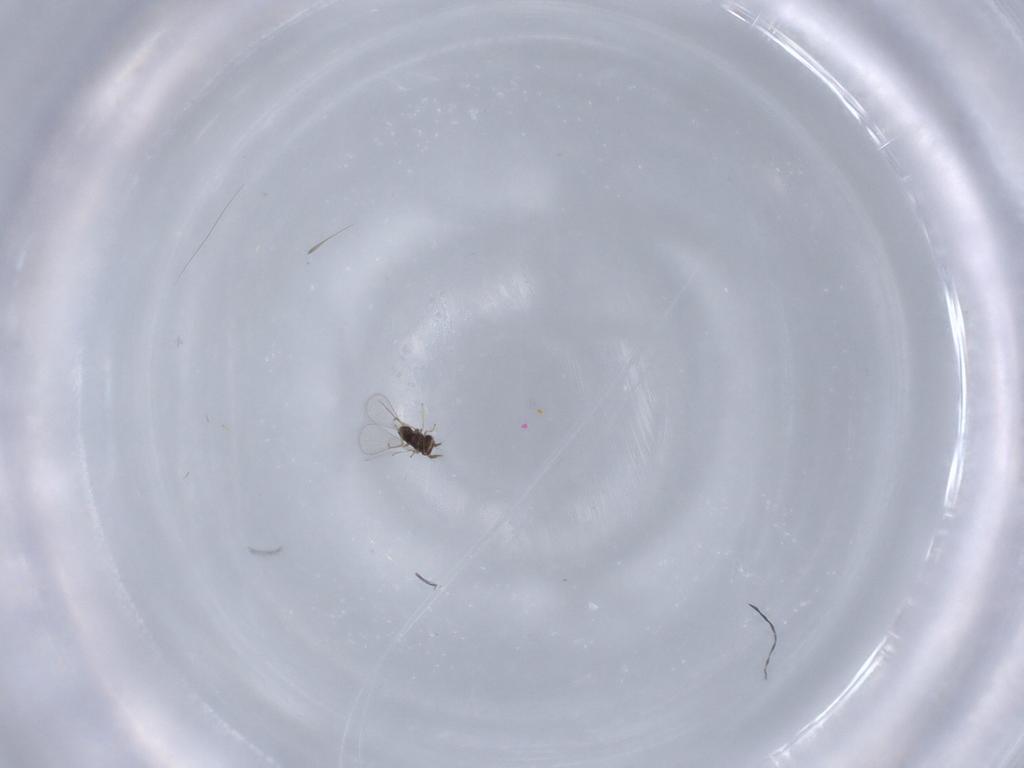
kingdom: Animalia
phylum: Arthropoda
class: Insecta
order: Hymenoptera
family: Trichogrammatidae
